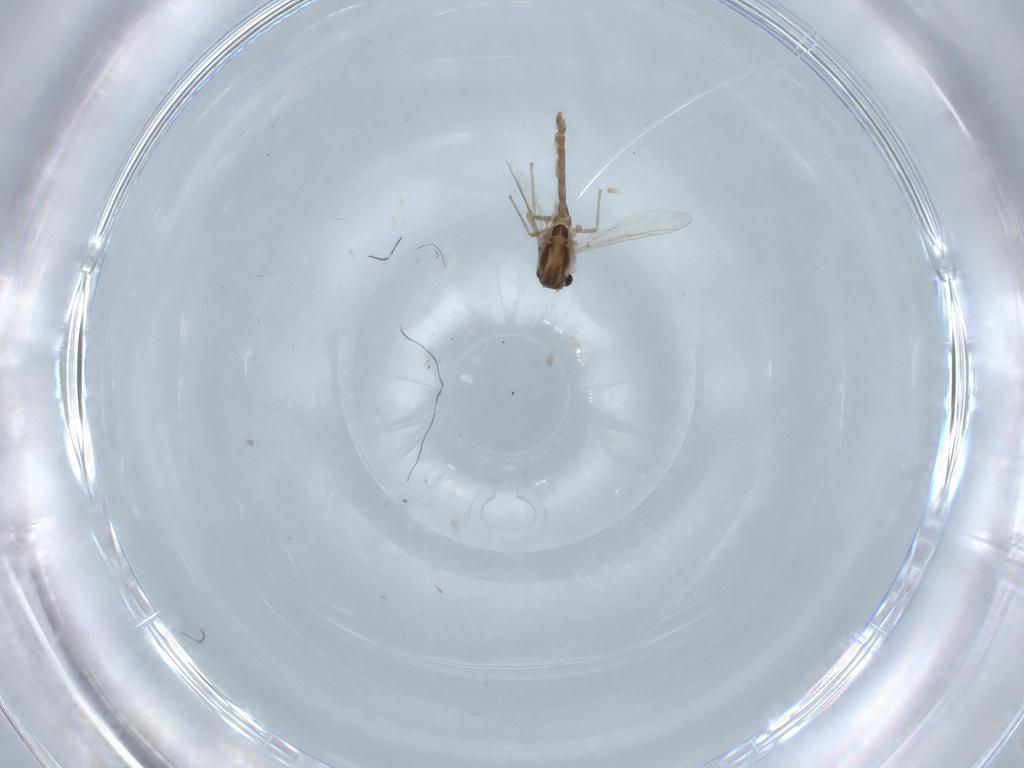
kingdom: Animalia
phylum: Arthropoda
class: Insecta
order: Diptera
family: Chironomidae
